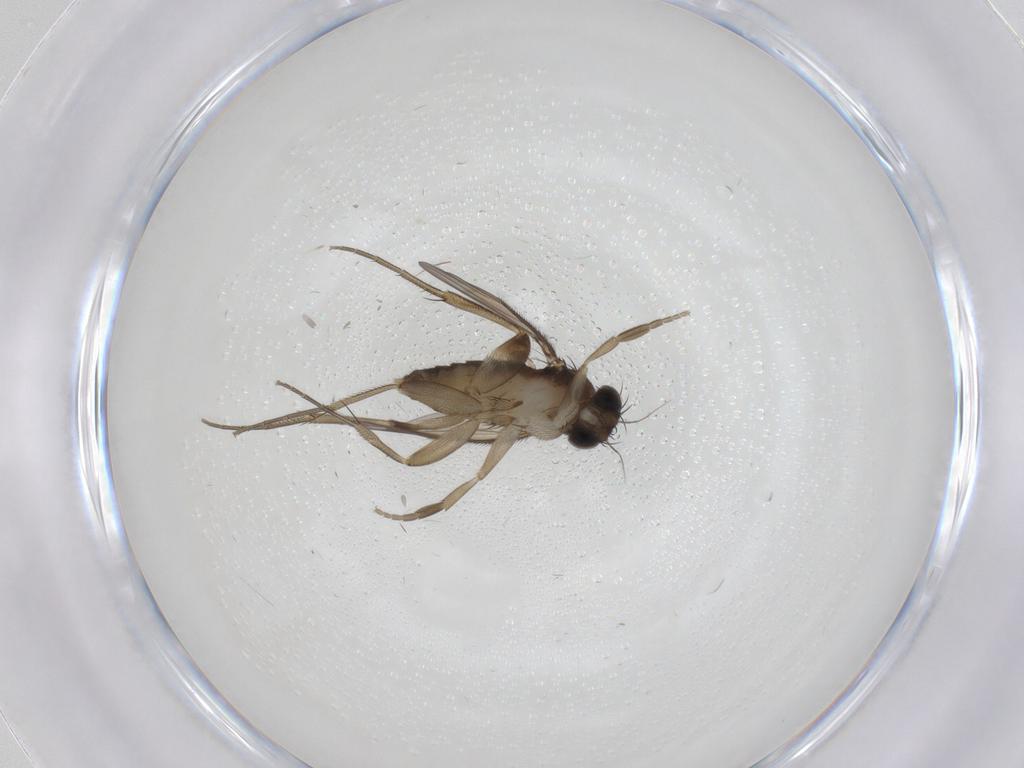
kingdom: Animalia
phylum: Arthropoda
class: Insecta
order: Diptera
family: Phoridae
